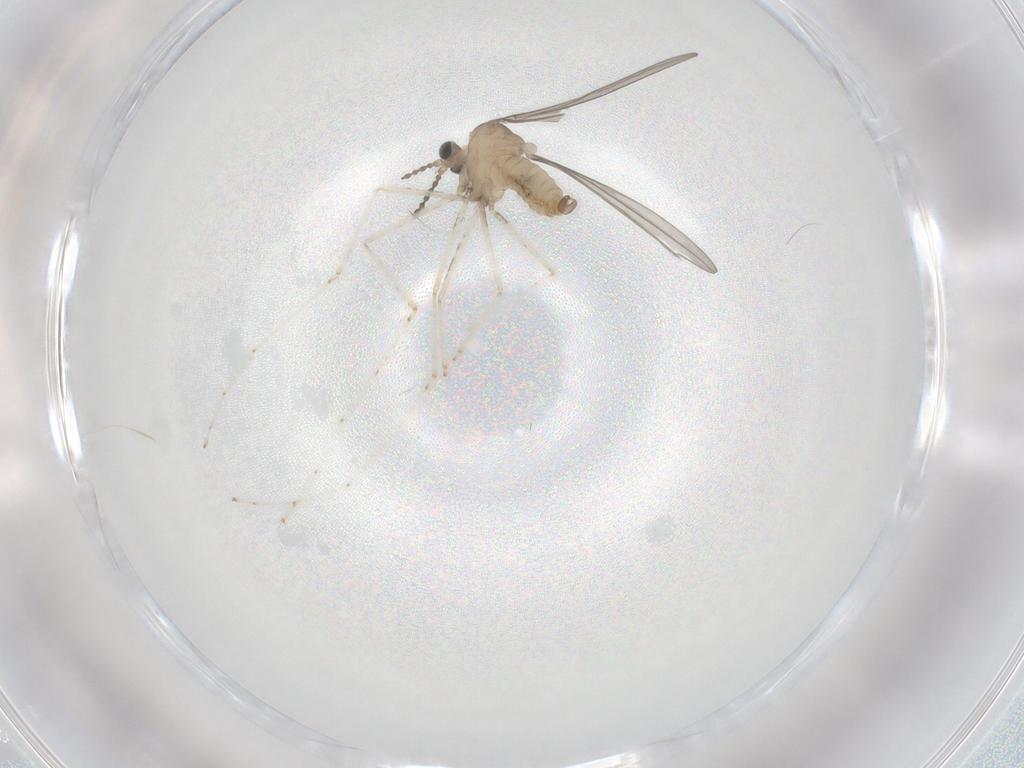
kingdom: Animalia
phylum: Arthropoda
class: Insecta
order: Diptera
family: Cecidomyiidae
